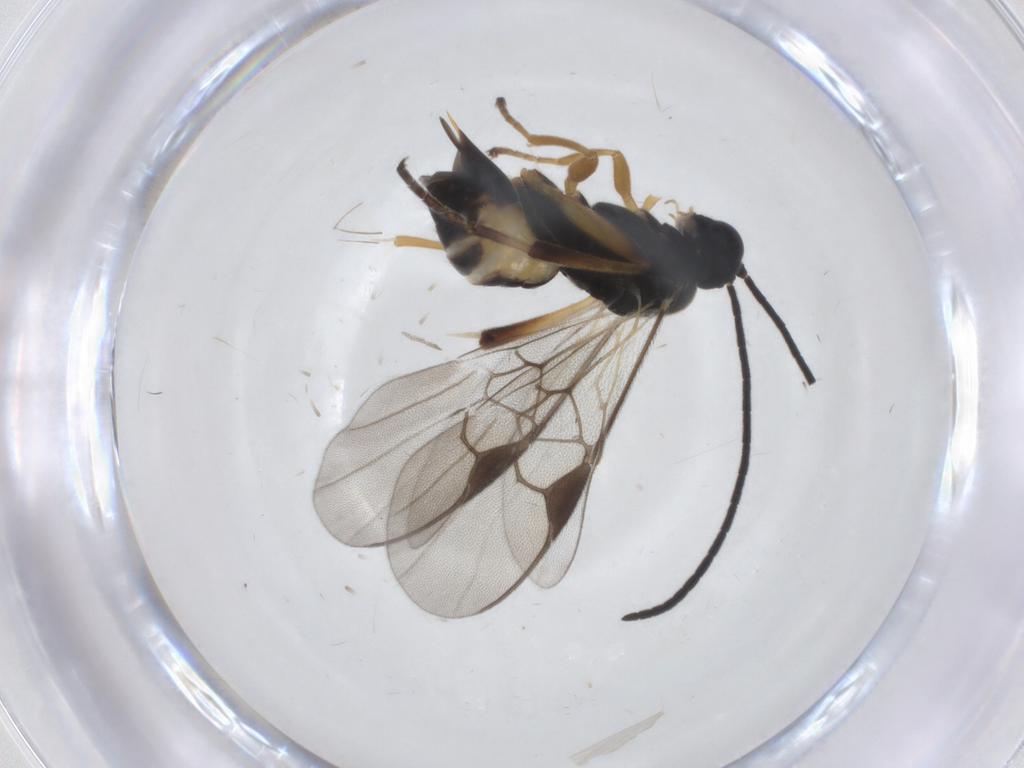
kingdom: Animalia
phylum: Arthropoda
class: Insecta
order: Hymenoptera
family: Braconidae
